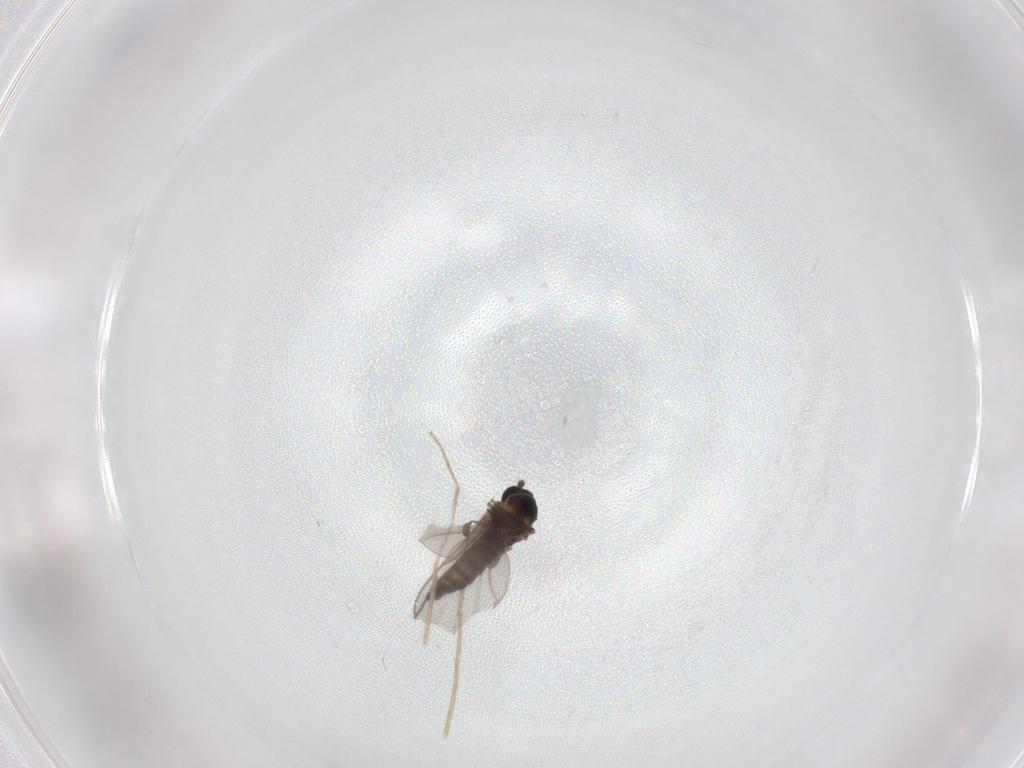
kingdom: Animalia
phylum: Arthropoda
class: Insecta
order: Diptera
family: Chironomidae
